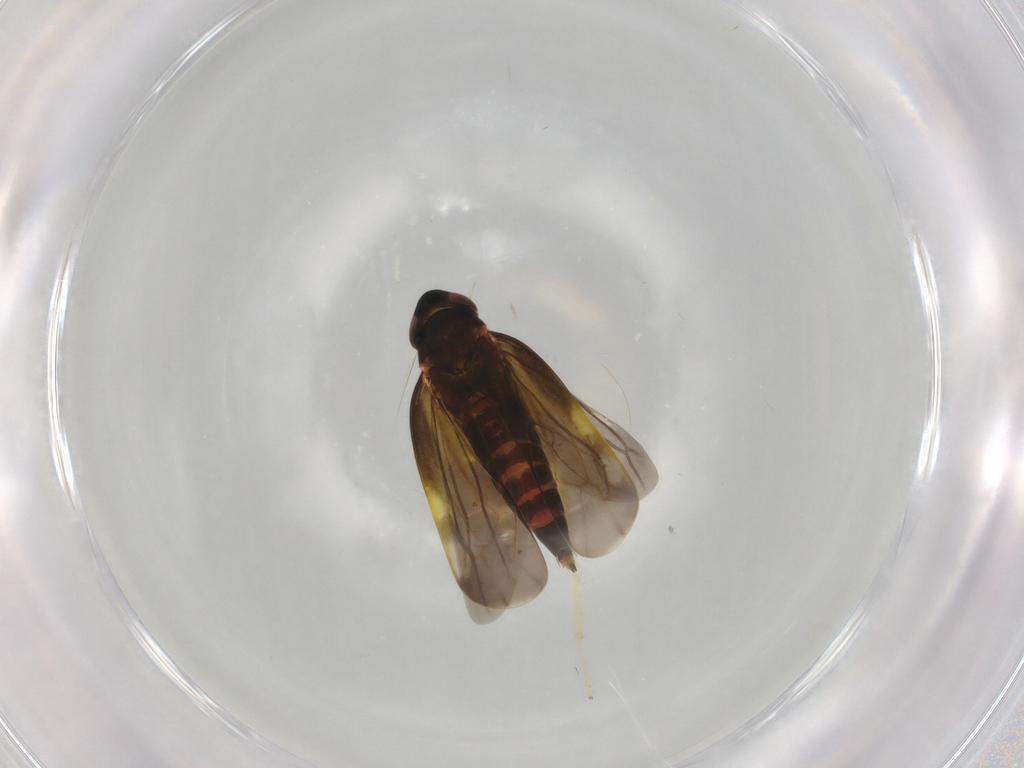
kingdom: Animalia
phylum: Arthropoda
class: Insecta
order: Hemiptera
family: Cicadellidae
